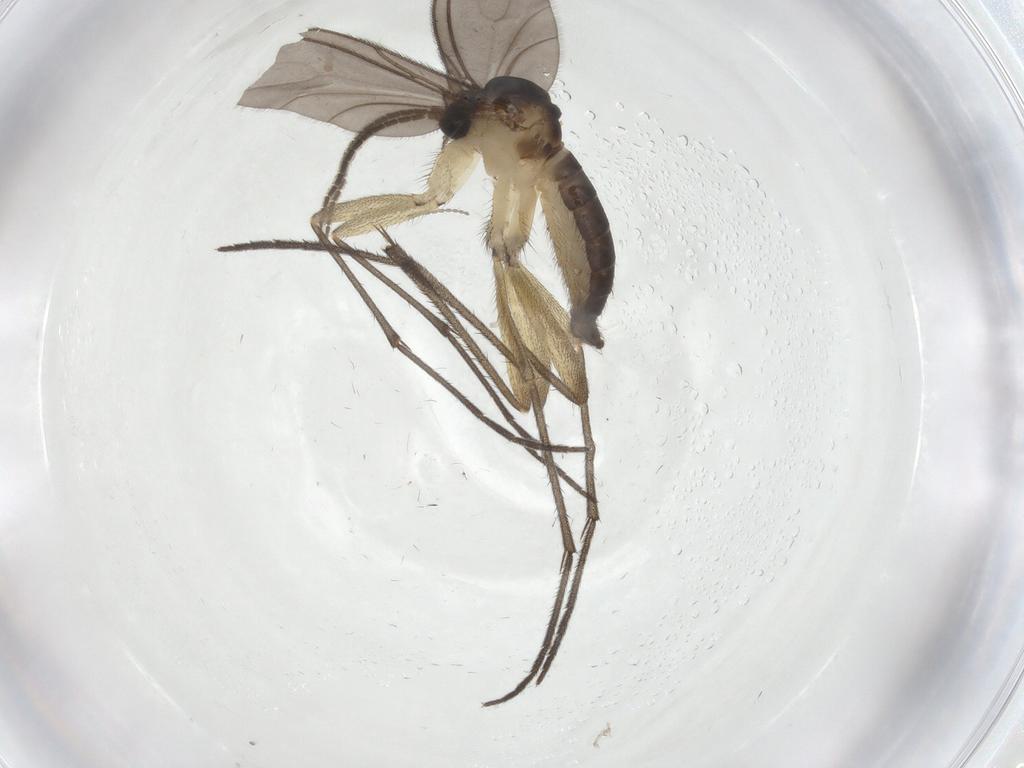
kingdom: Animalia
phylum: Arthropoda
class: Insecta
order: Diptera
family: Sciaridae
